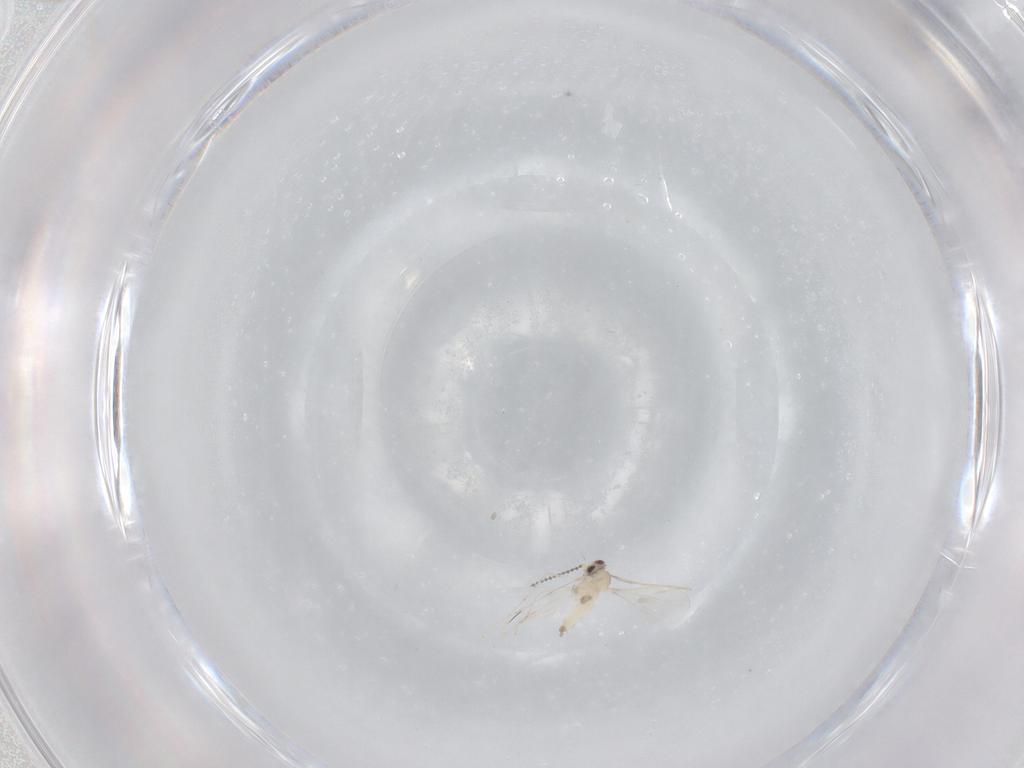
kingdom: Animalia
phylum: Arthropoda
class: Insecta
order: Diptera
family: Cecidomyiidae
